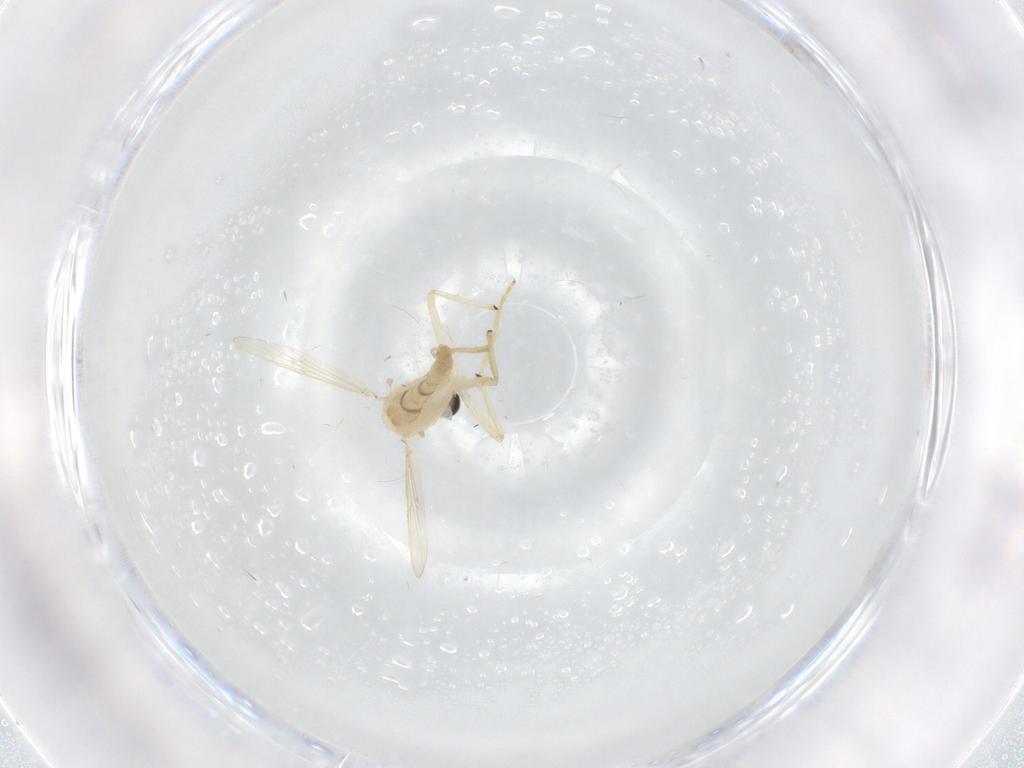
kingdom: Animalia
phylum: Arthropoda
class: Insecta
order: Diptera
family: Chironomidae
